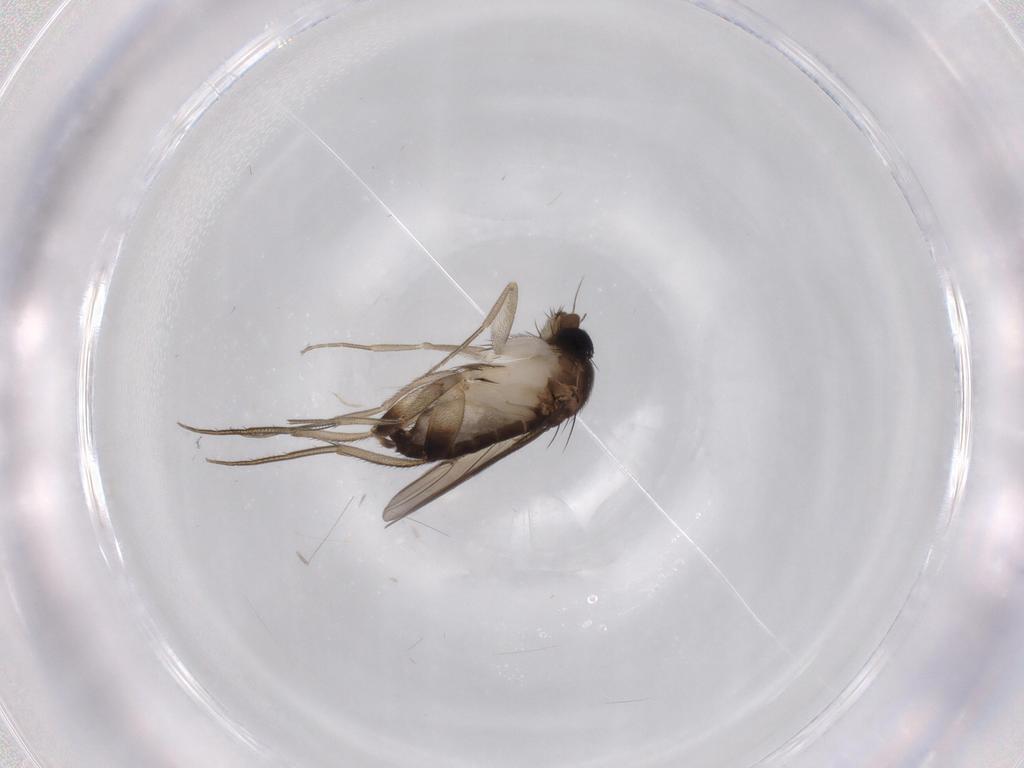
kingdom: Animalia
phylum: Arthropoda
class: Insecta
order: Diptera
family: Phoridae
